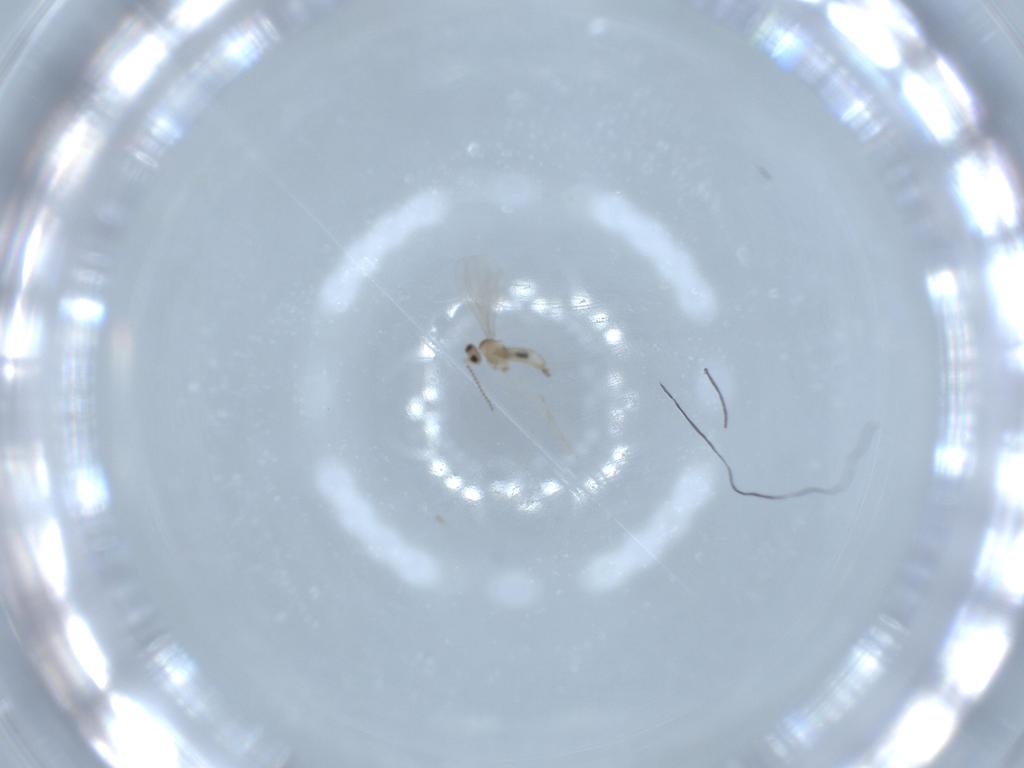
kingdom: Animalia
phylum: Arthropoda
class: Insecta
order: Diptera
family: Cecidomyiidae
